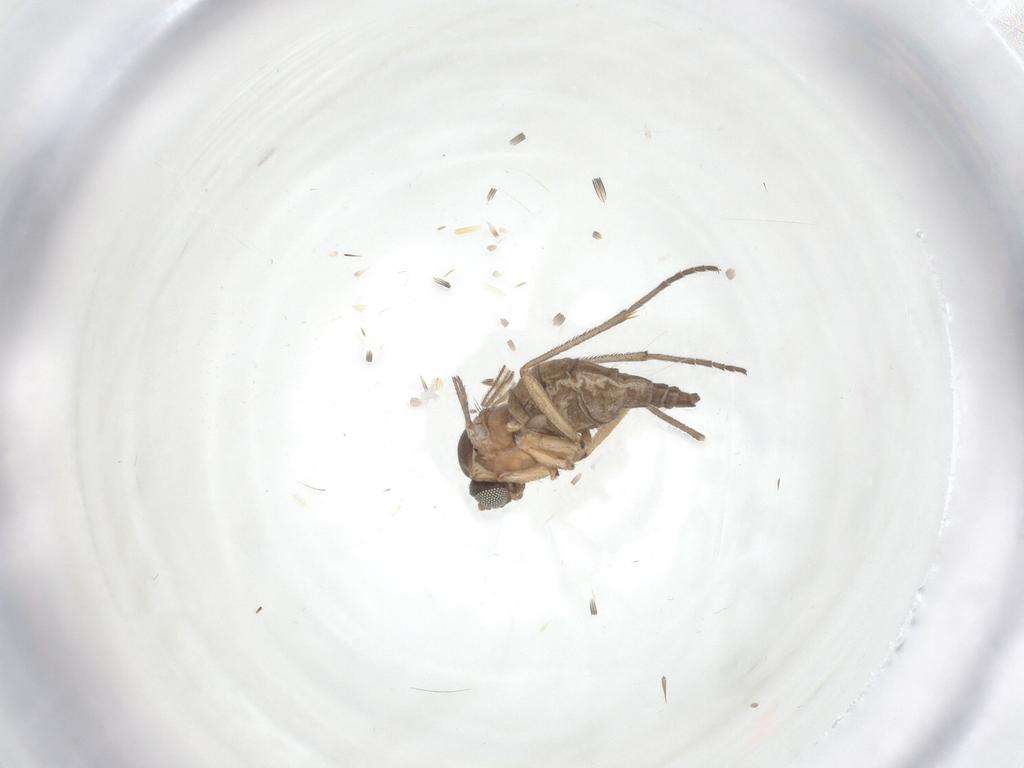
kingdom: Animalia
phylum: Arthropoda
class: Insecta
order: Diptera
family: Sciaridae
